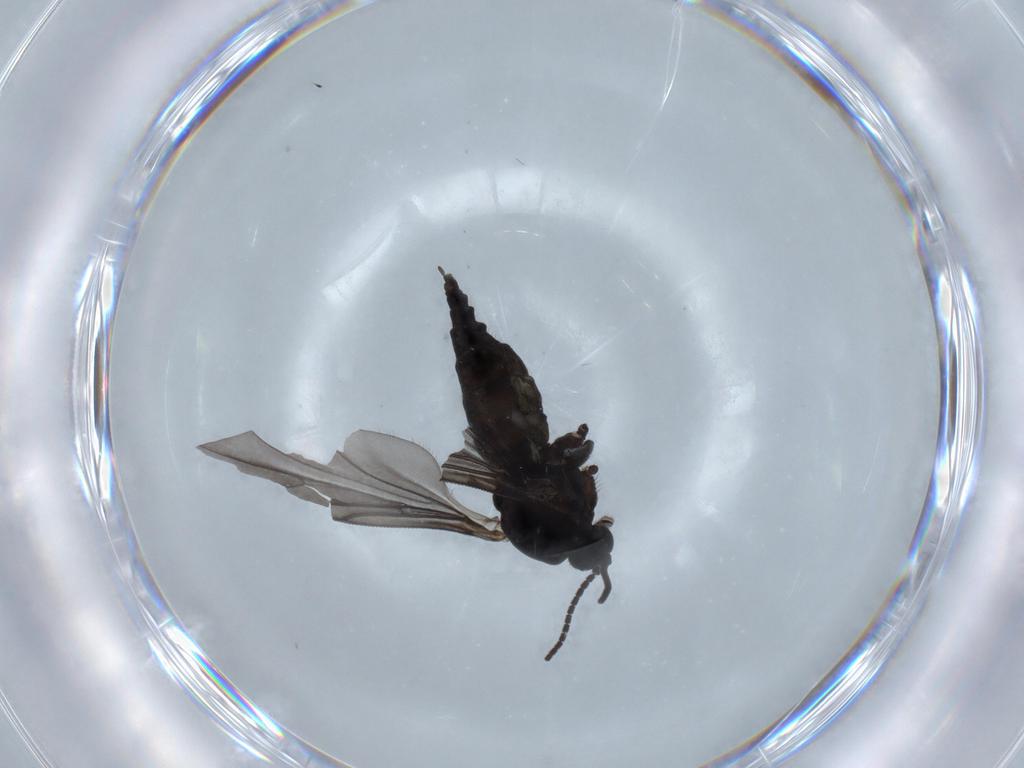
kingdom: Animalia
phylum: Arthropoda
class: Insecta
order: Diptera
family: Sciaridae
